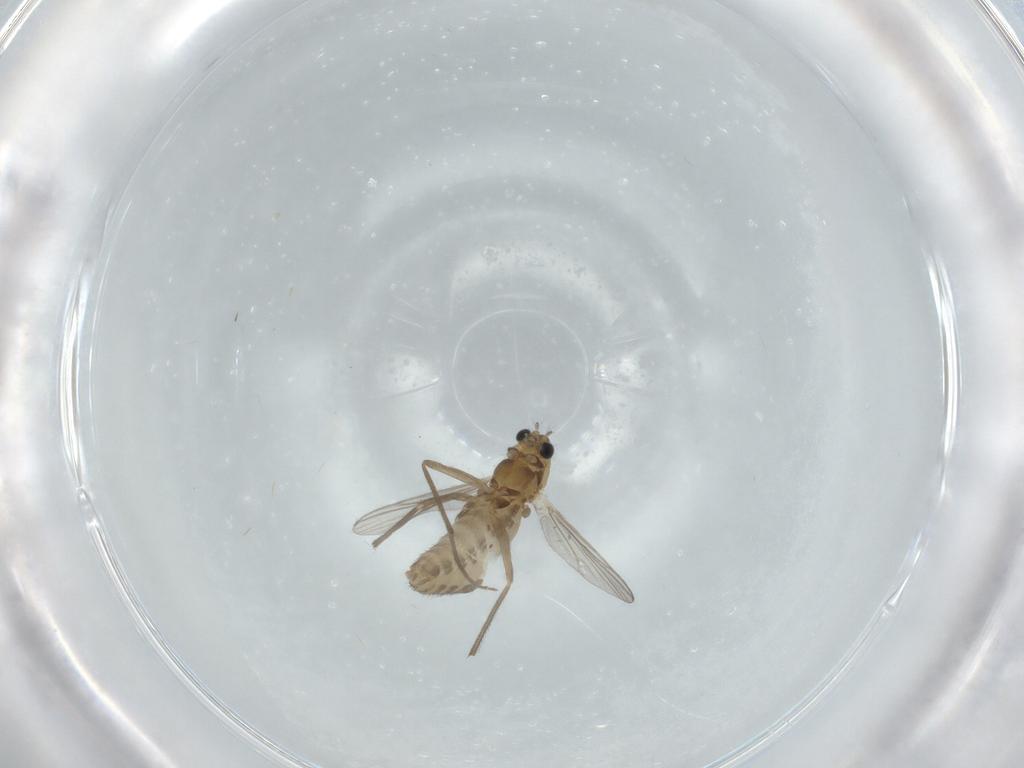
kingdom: Animalia
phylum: Arthropoda
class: Insecta
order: Diptera
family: Chironomidae
